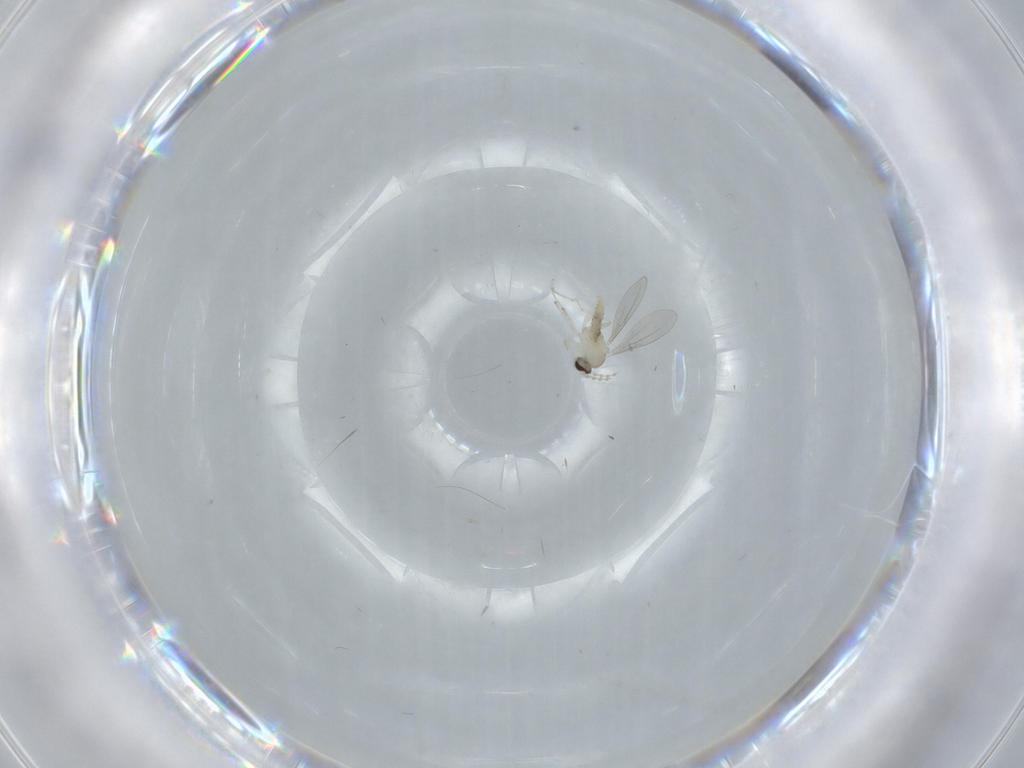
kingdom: Animalia
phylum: Arthropoda
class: Insecta
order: Diptera
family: Cecidomyiidae
